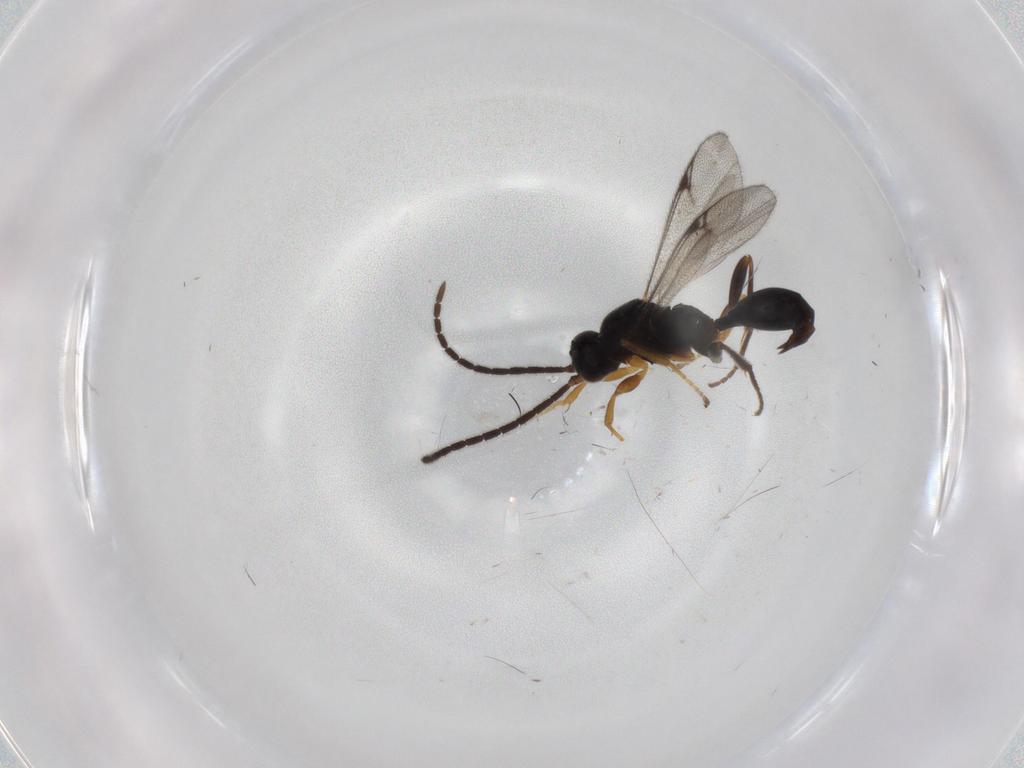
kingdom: Animalia
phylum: Arthropoda
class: Insecta
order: Hymenoptera
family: Proctotrupidae
